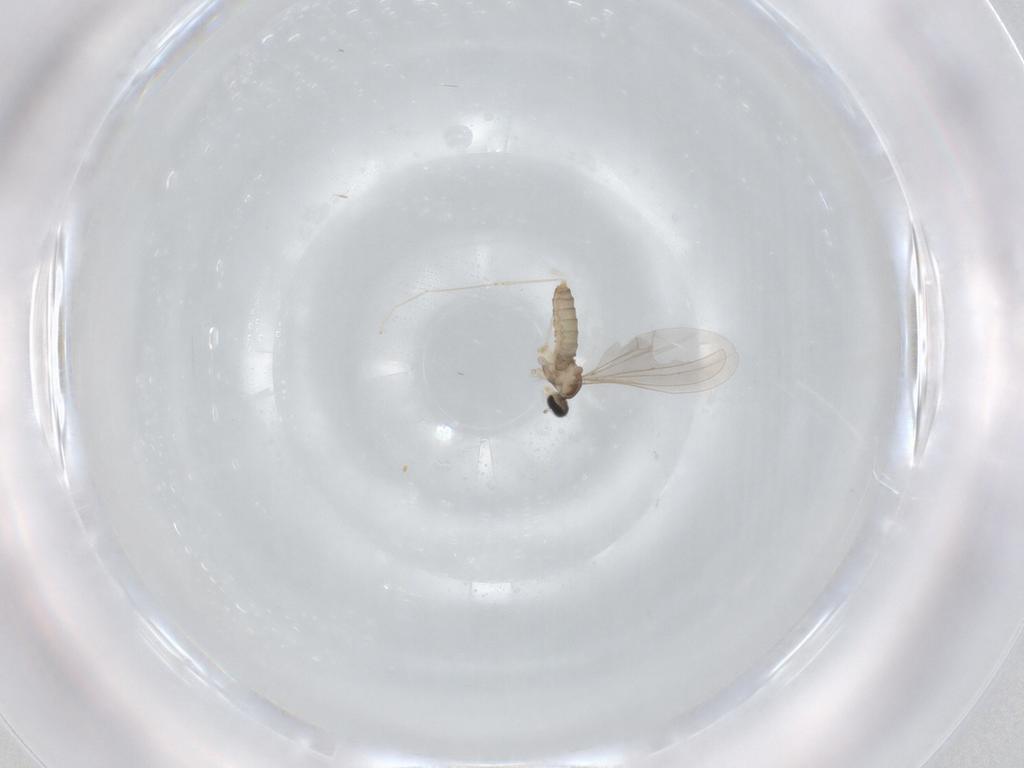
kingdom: Animalia
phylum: Arthropoda
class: Insecta
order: Diptera
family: Cecidomyiidae
